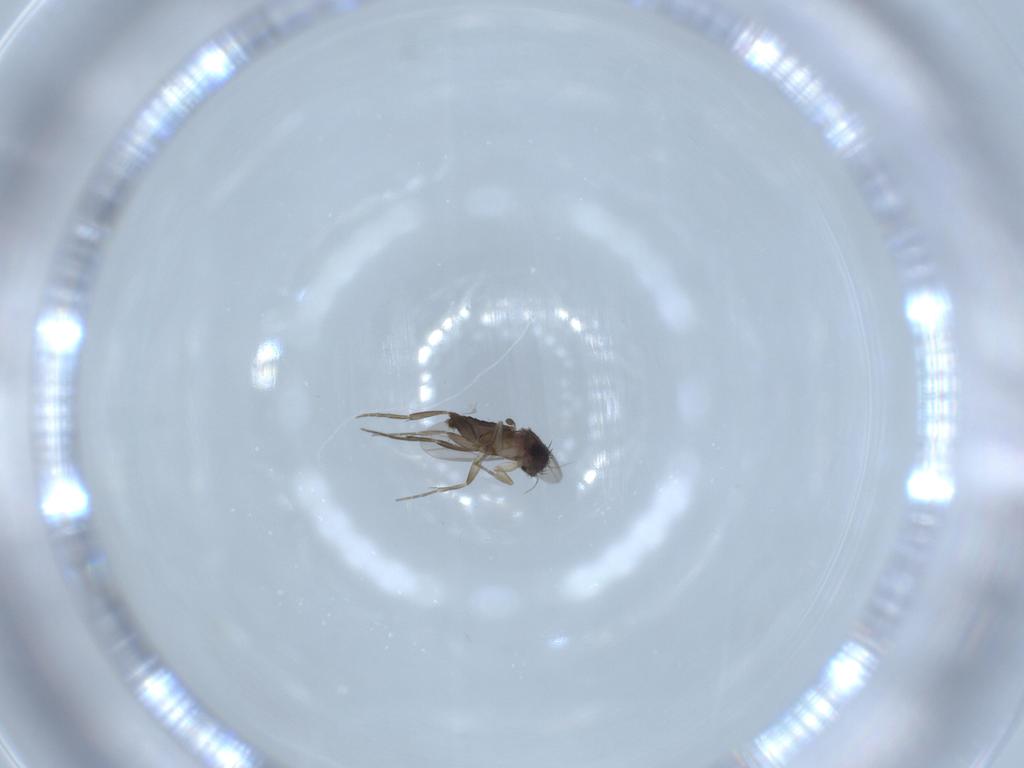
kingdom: Animalia
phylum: Arthropoda
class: Insecta
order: Diptera
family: Phoridae
